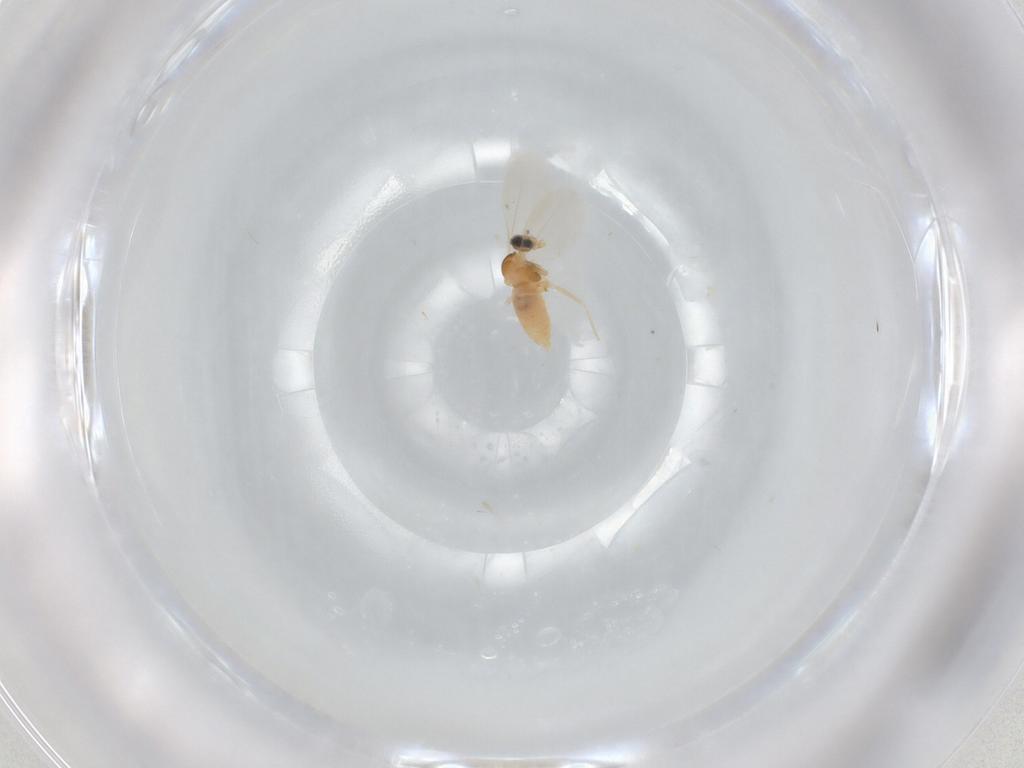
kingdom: Animalia
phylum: Arthropoda
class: Insecta
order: Diptera
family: Cecidomyiidae
